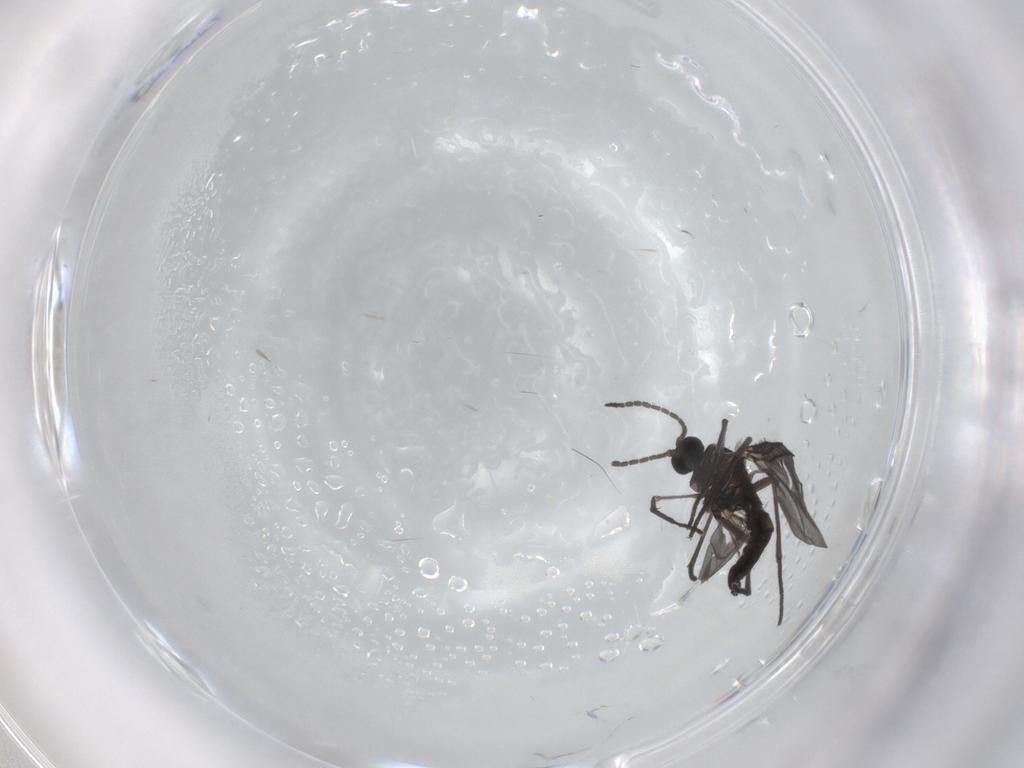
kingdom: Animalia
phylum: Arthropoda
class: Insecta
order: Diptera
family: Sciaridae
